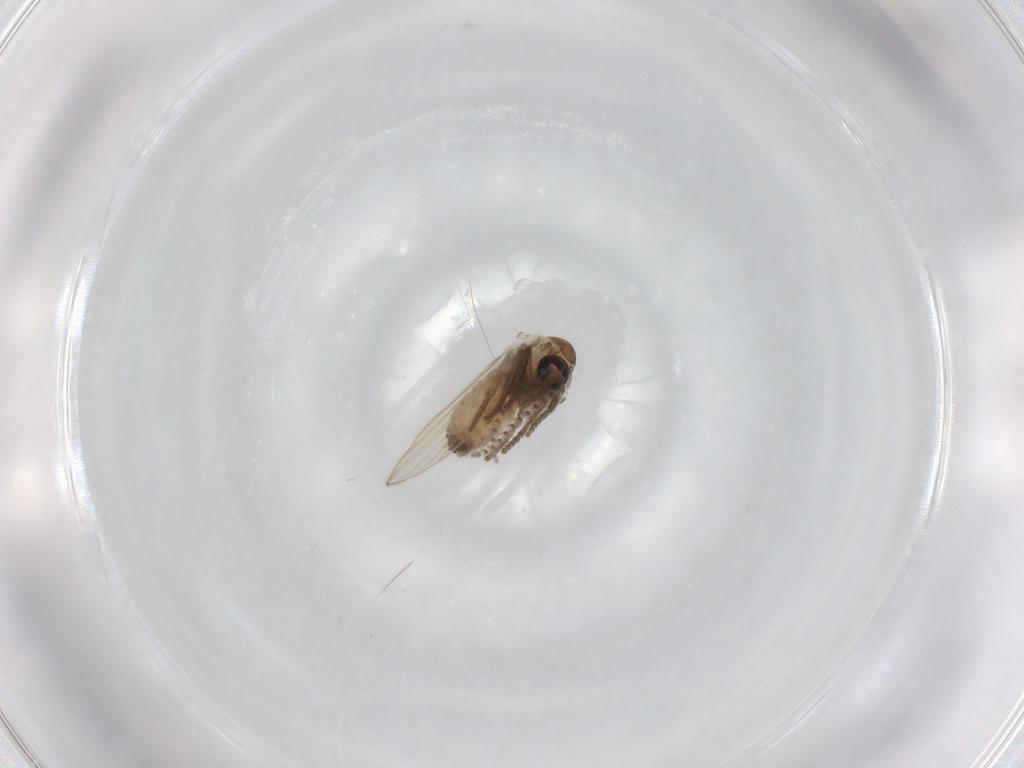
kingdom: Animalia
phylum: Arthropoda
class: Insecta
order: Diptera
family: Psychodidae
